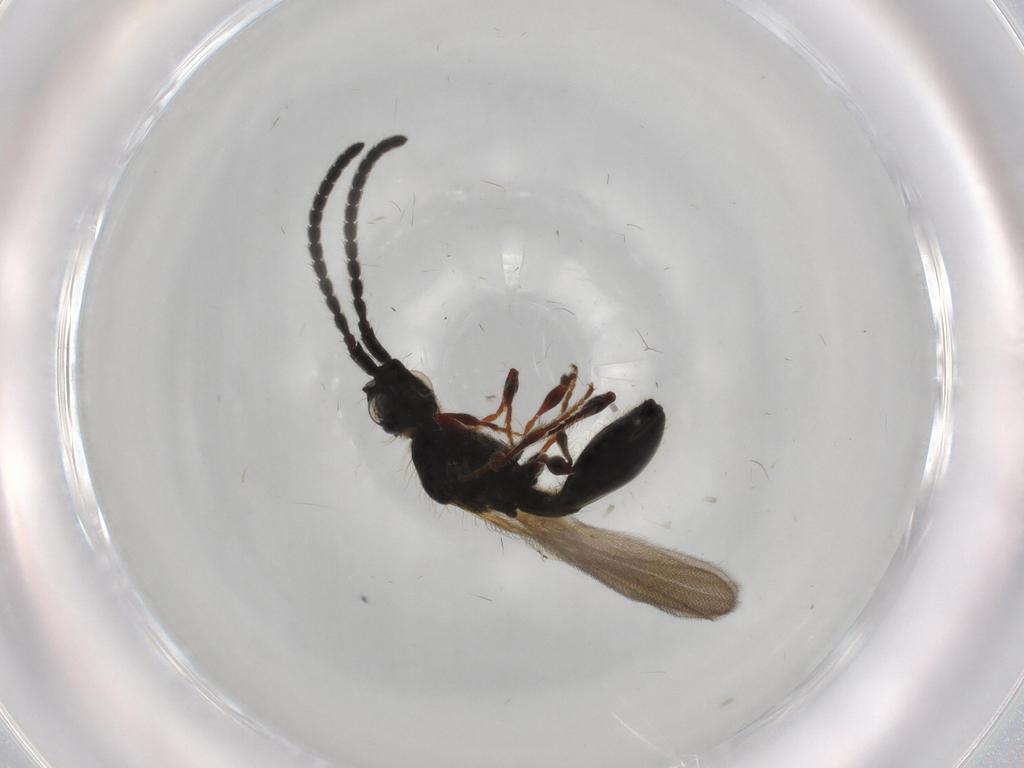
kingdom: Animalia
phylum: Arthropoda
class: Insecta
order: Hymenoptera
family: Diapriidae
